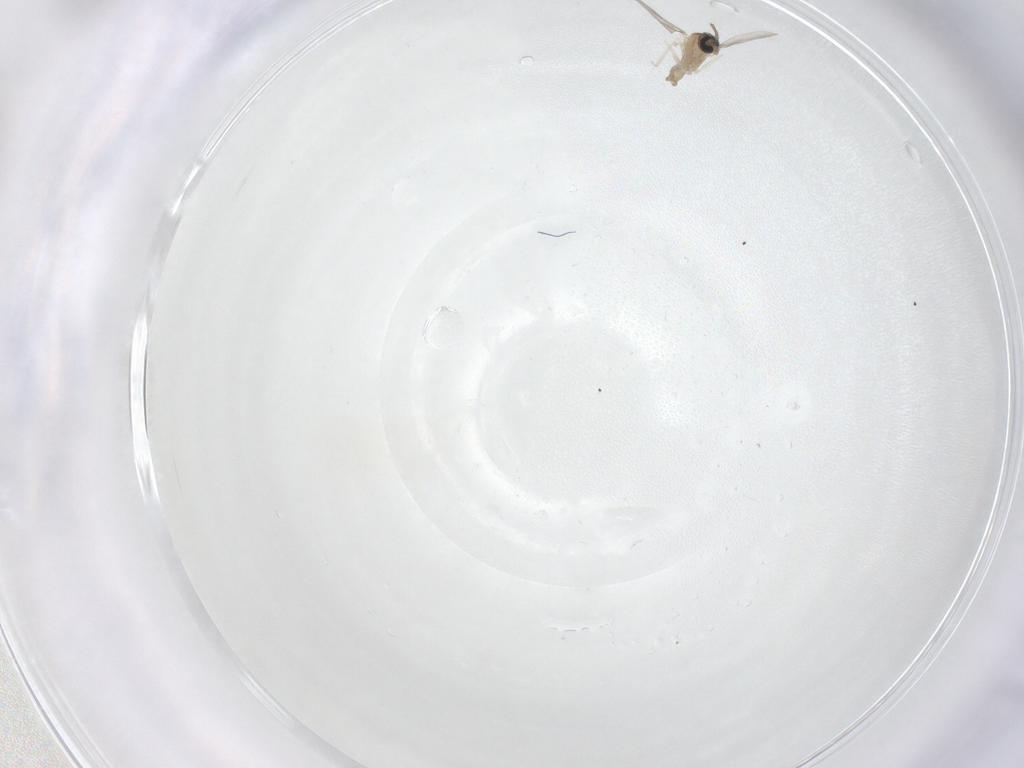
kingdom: Animalia
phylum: Arthropoda
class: Insecta
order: Diptera
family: Cecidomyiidae
